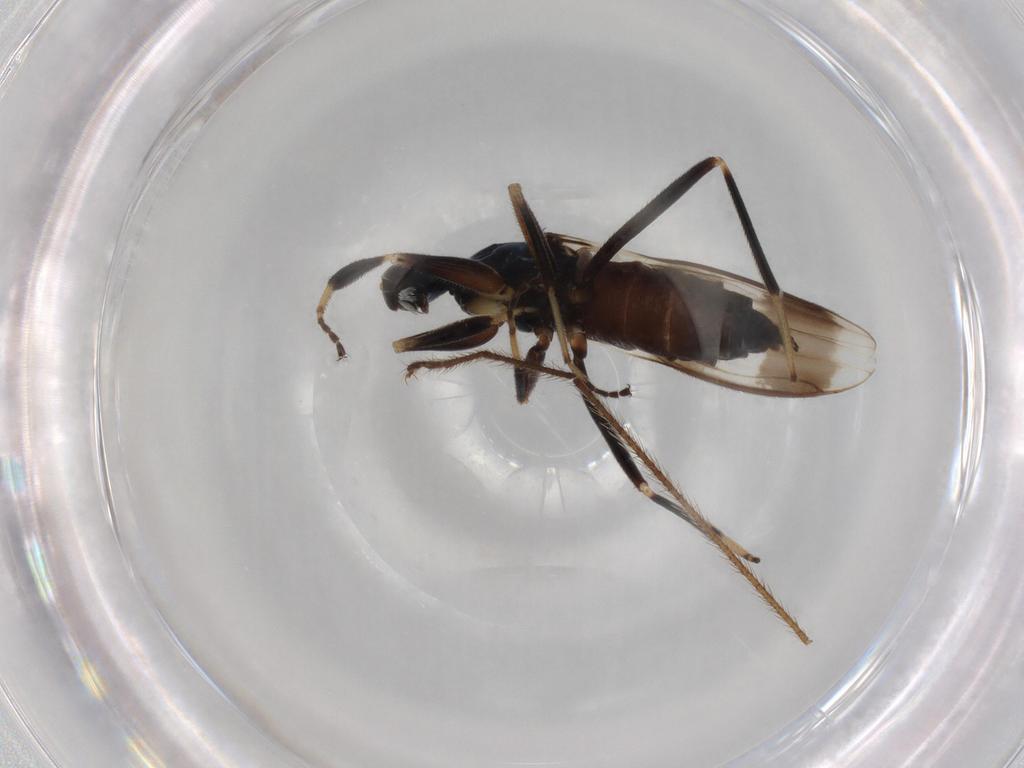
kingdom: Animalia
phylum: Arthropoda
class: Insecta
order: Diptera
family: Hybotidae
